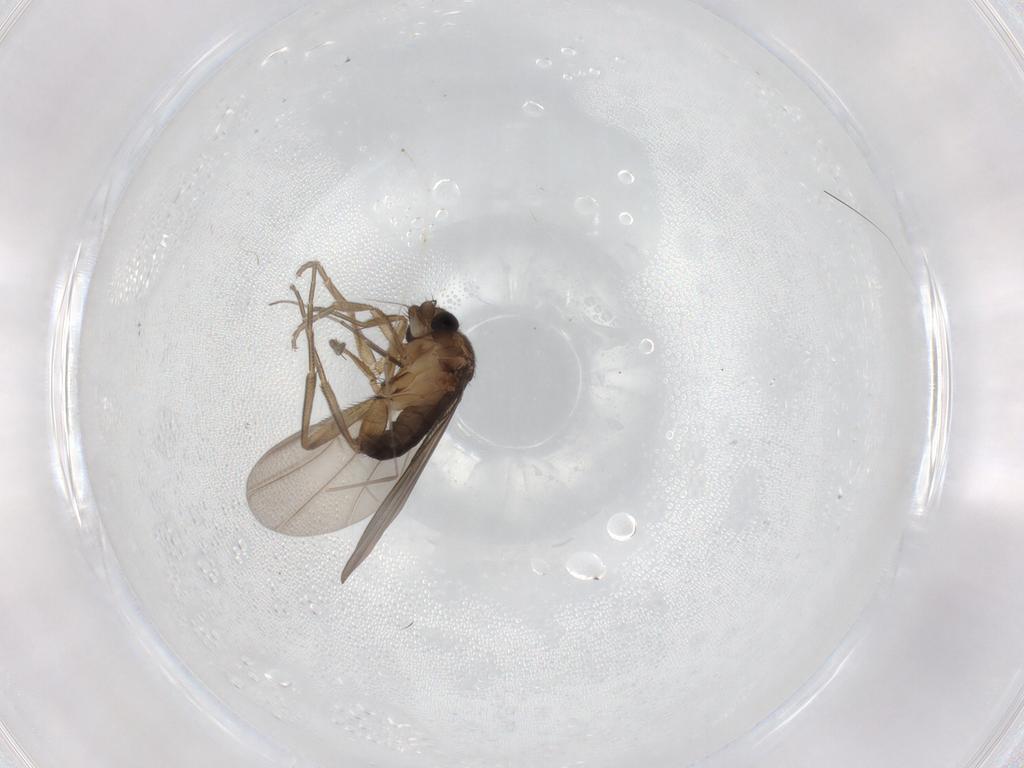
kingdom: Animalia
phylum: Arthropoda
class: Insecta
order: Diptera
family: Chironomidae
